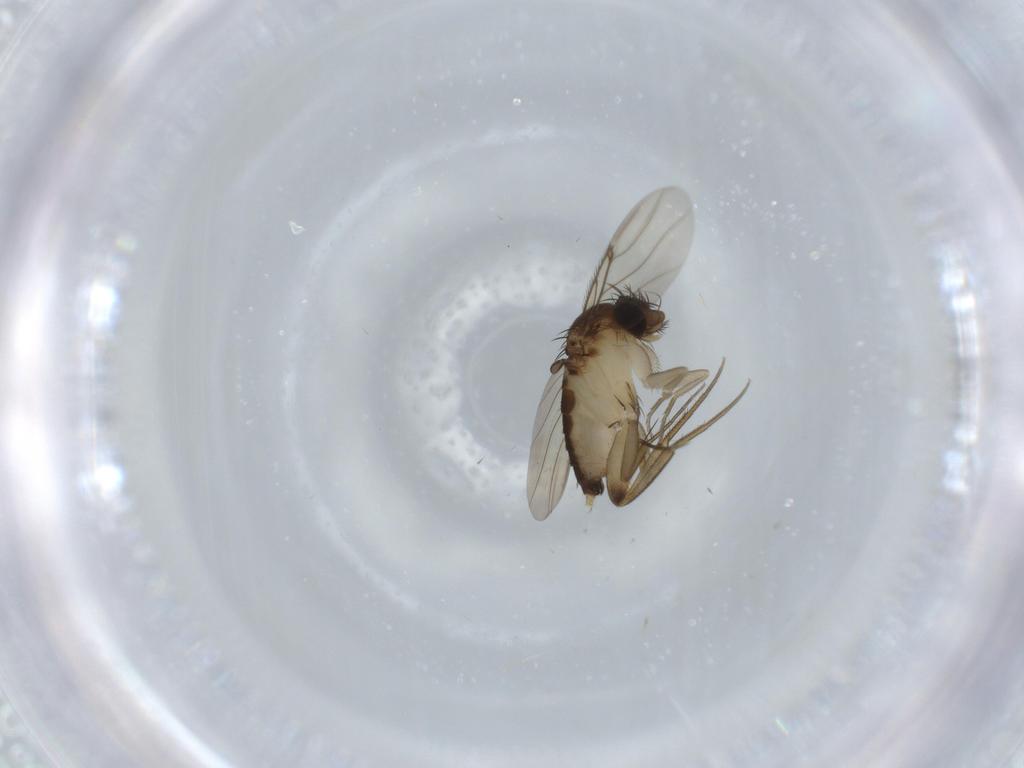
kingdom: Animalia
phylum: Arthropoda
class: Insecta
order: Diptera
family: Phoridae
